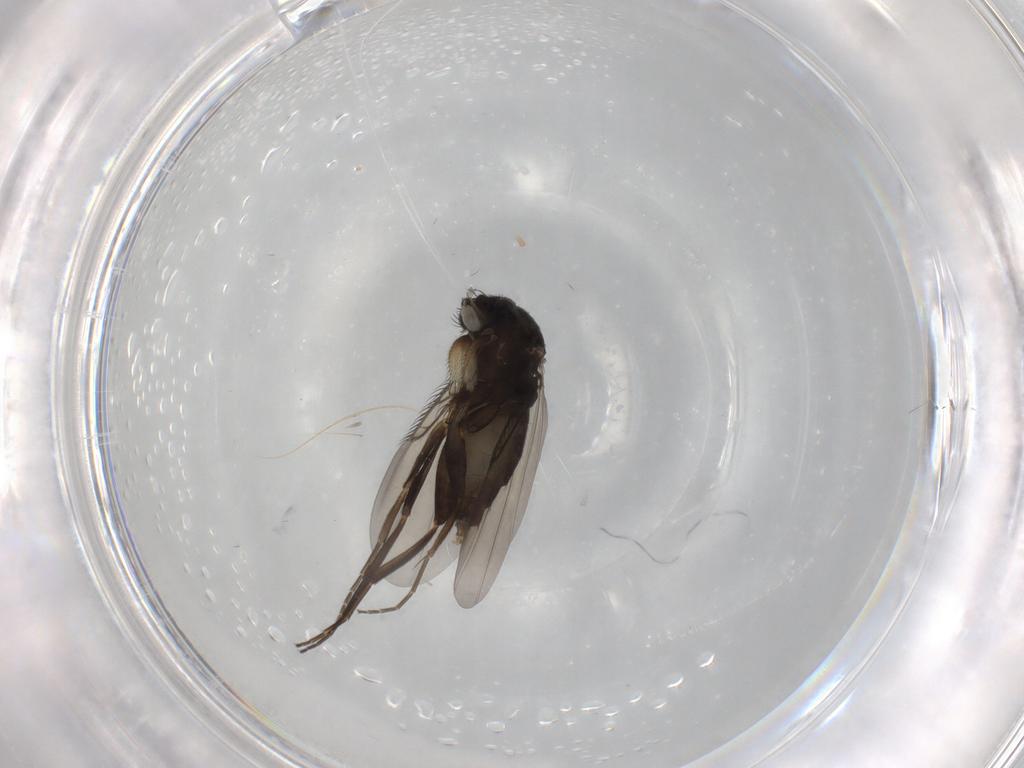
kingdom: Animalia
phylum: Arthropoda
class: Insecta
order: Diptera
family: Phoridae
